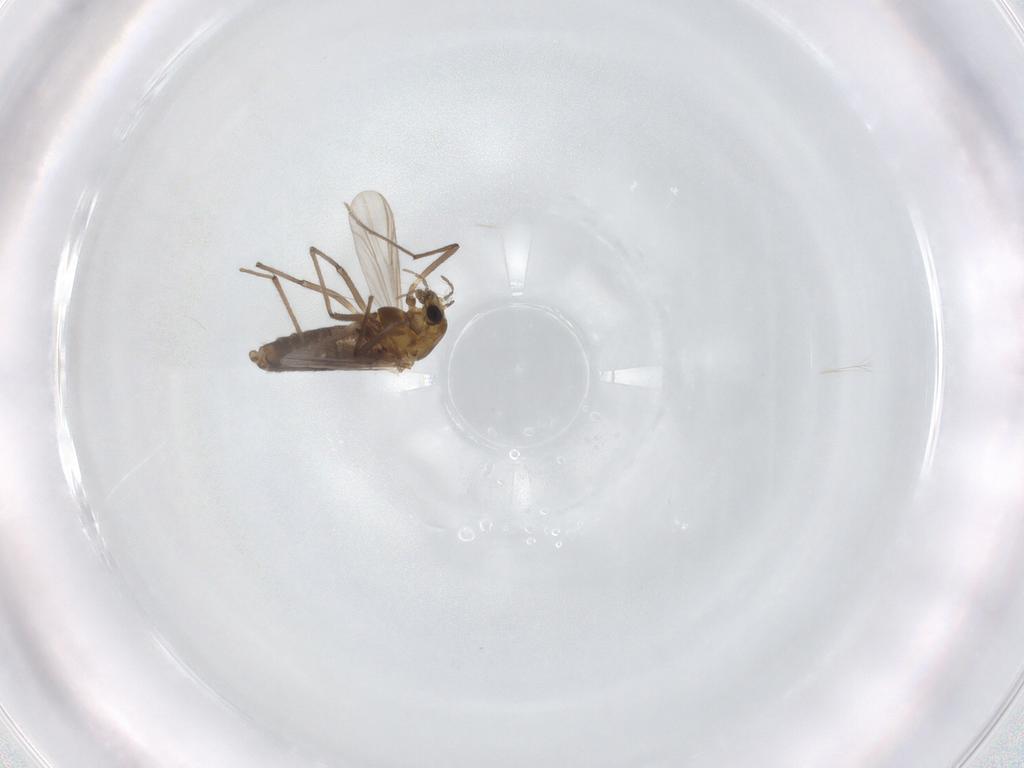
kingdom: Animalia
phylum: Arthropoda
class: Insecta
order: Diptera
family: Chironomidae
